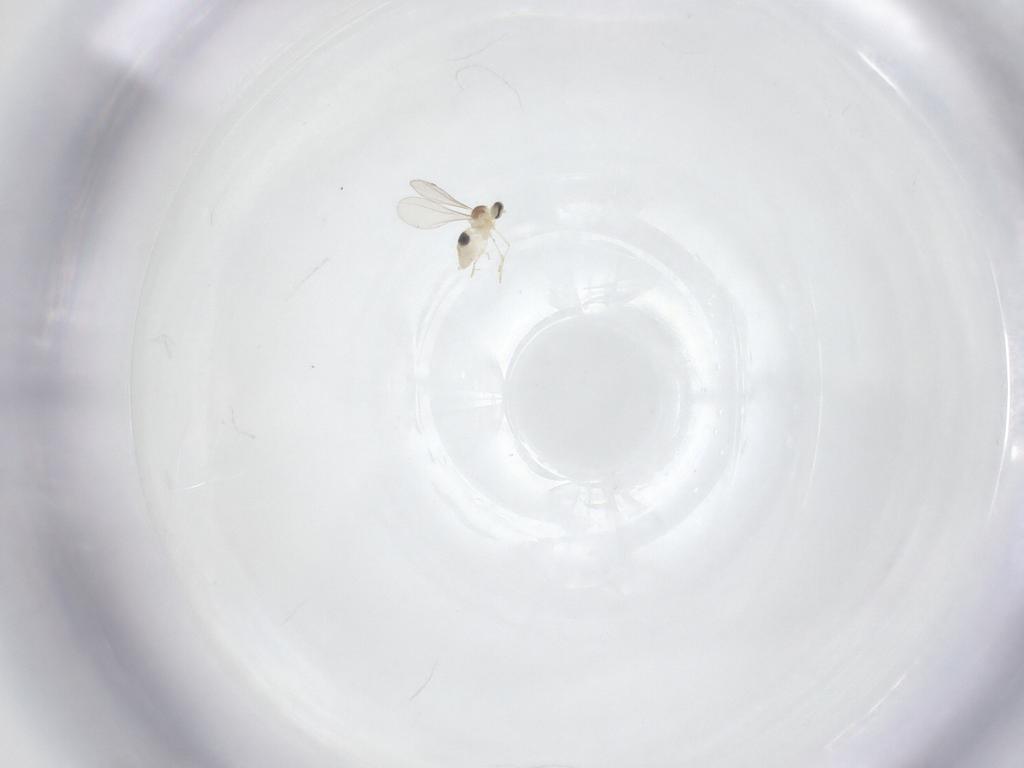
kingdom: Animalia
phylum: Arthropoda
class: Insecta
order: Diptera
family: Cecidomyiidae
